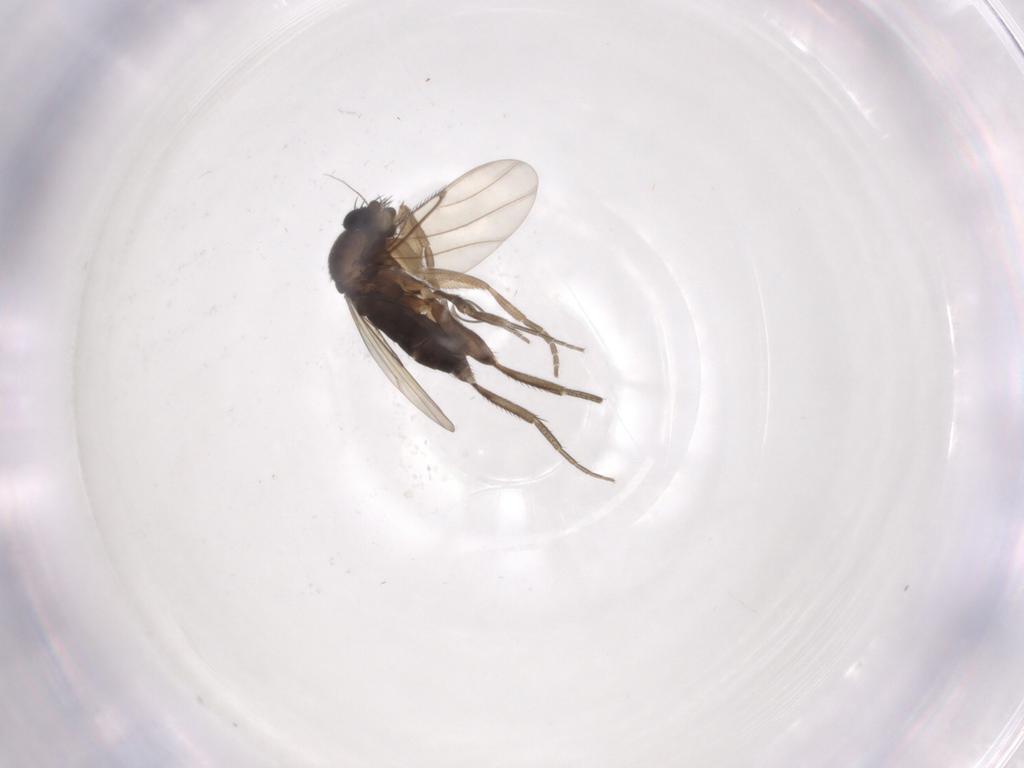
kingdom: Animalia
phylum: Arthropoda
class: Insecta
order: Diptera
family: Phoridae
